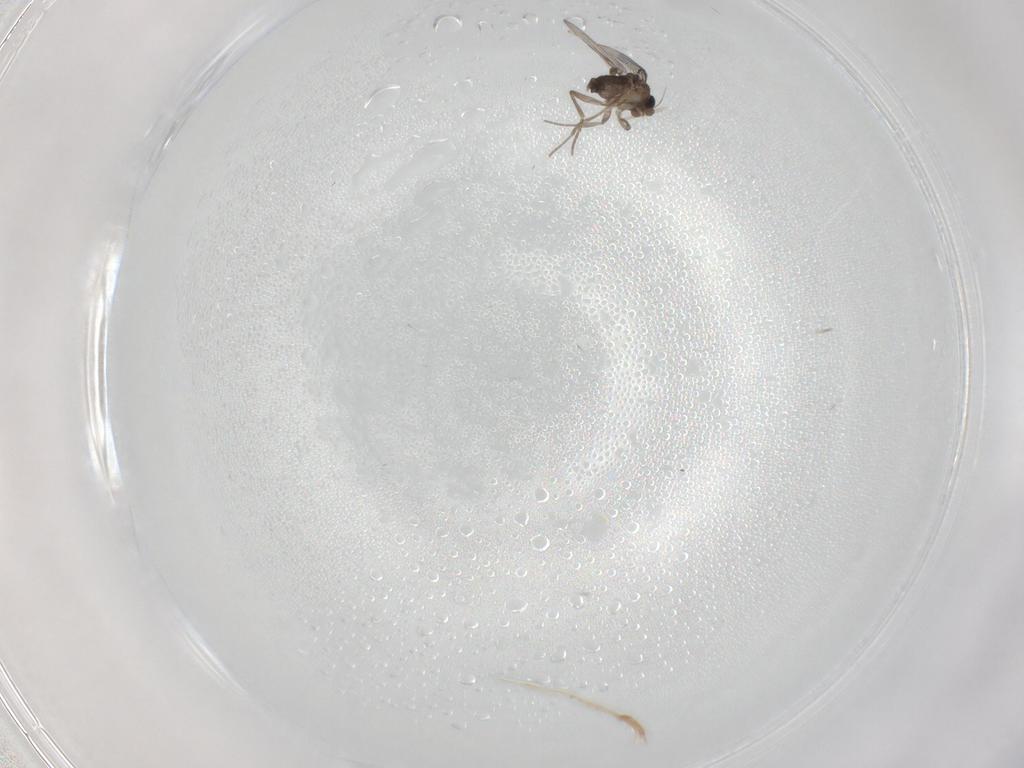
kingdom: Animalia
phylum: Arthropoda
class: Insecta
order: Diptera
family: Phoridae
